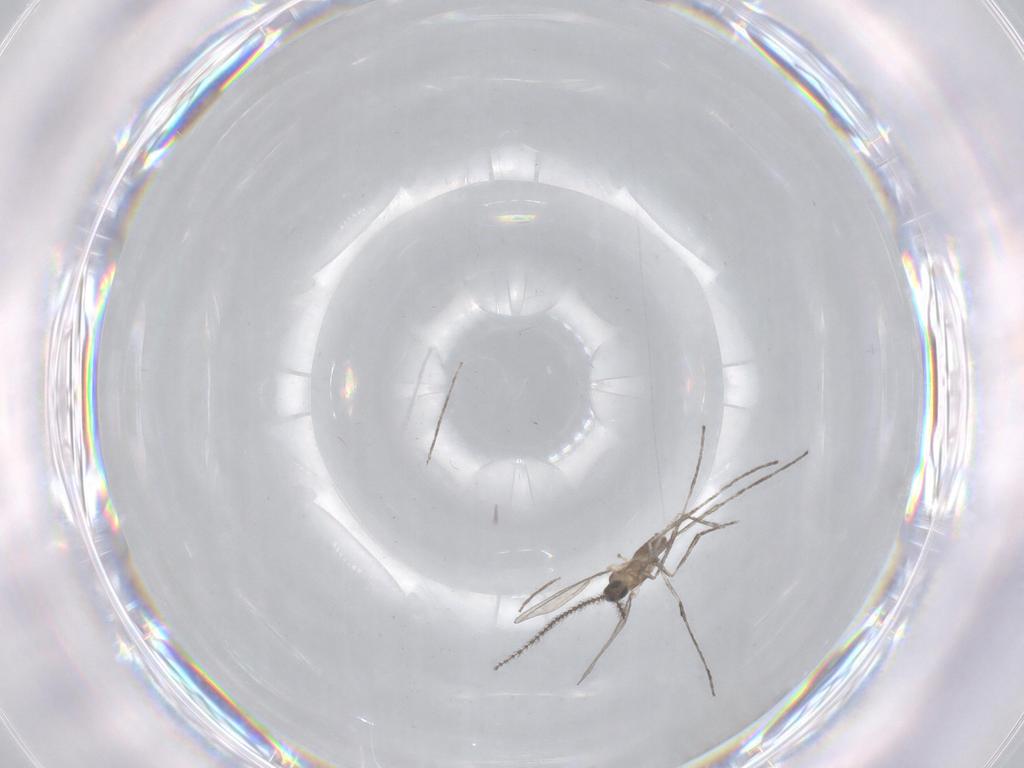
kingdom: Animalia
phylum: Arthropoda
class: Insecta
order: Diptera
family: Cecidomyiidae
